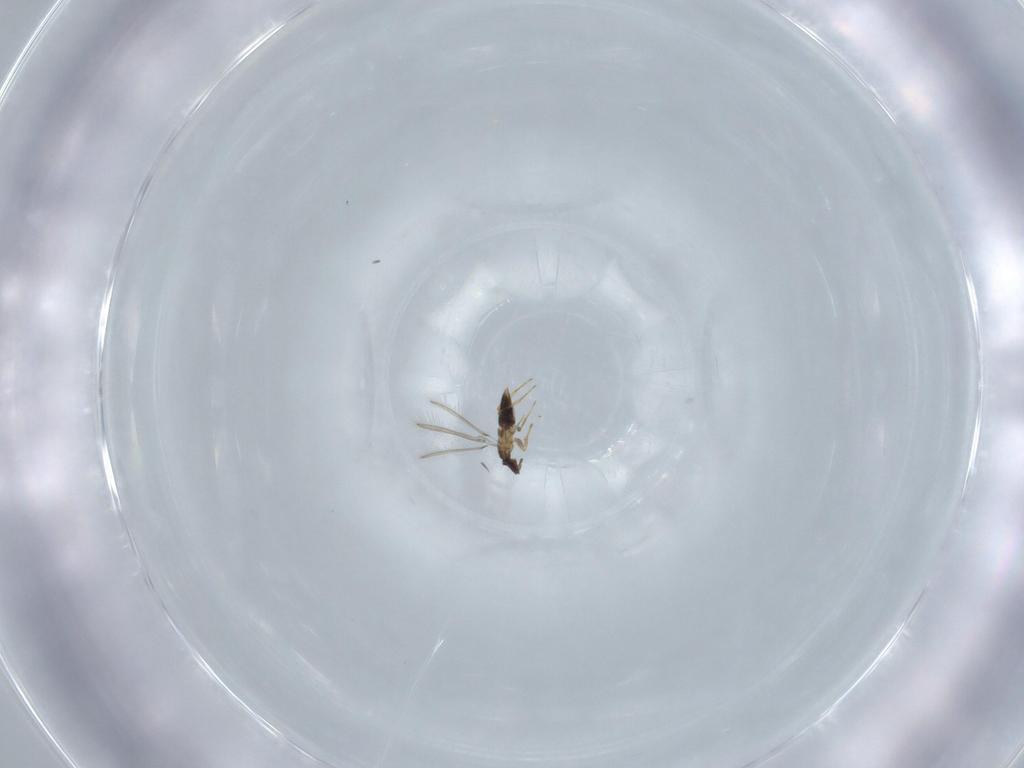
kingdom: Animalia
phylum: Arthropoda
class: Insecta
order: Hymenoptera
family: Mymaridae
